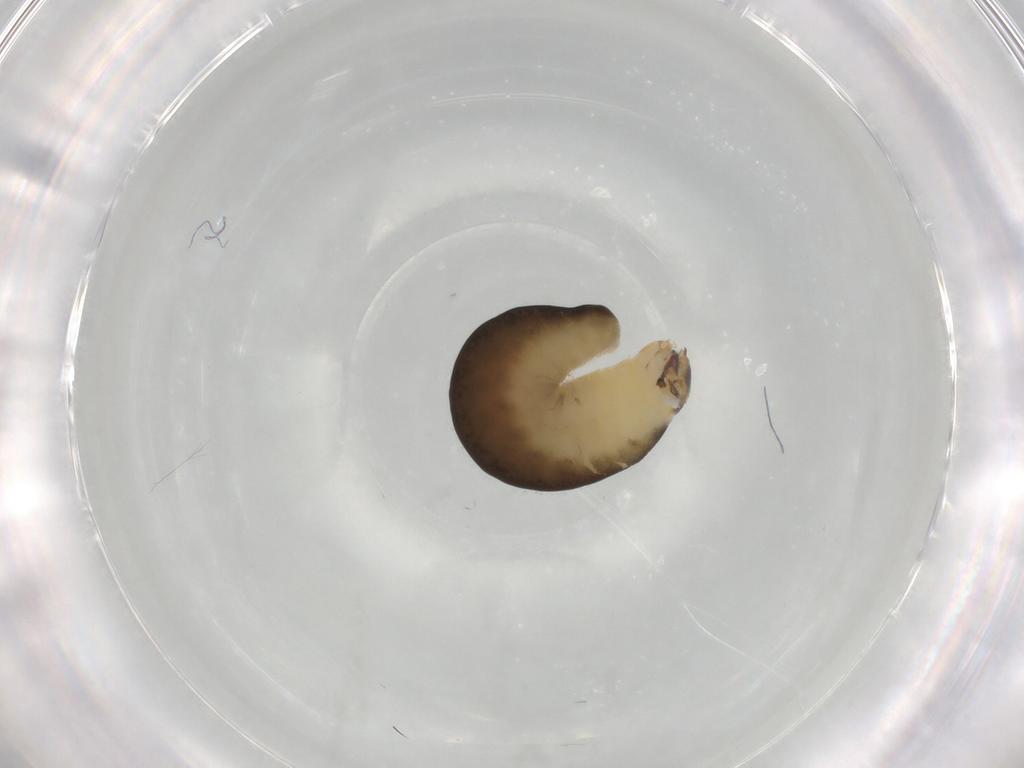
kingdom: Animalia
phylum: Arthropoda
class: Insecta
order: Hymenoptera
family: Dryinidae
